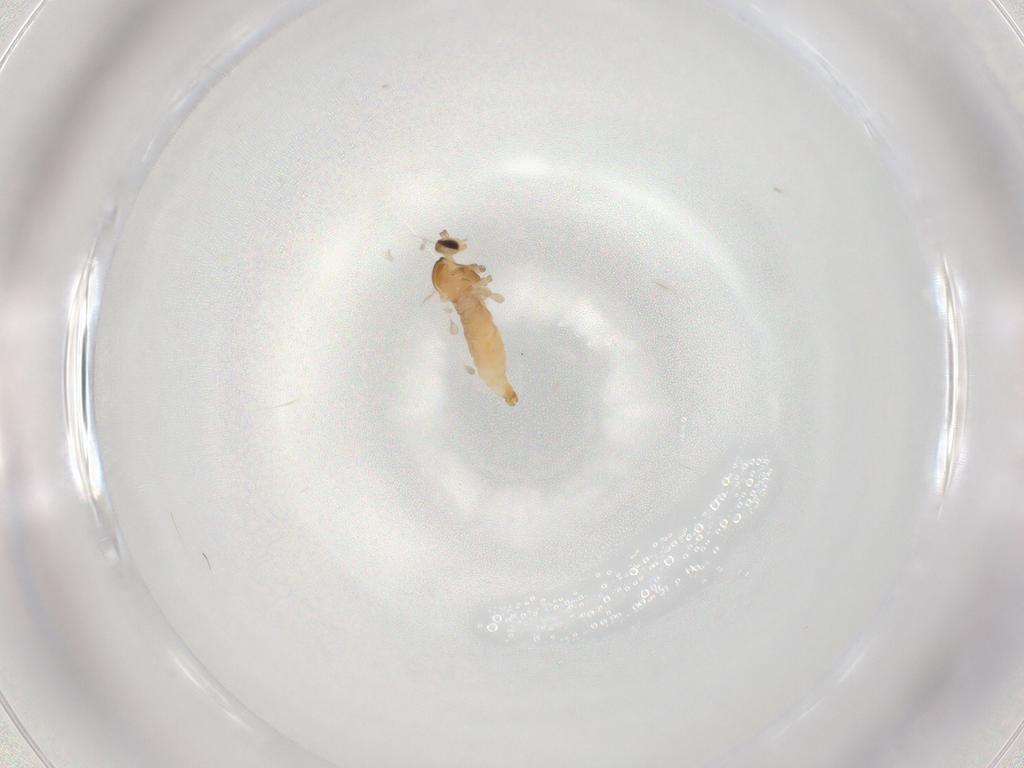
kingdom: Animalia
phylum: Arthropoda
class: Insecta
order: Diptera
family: Cecidomyiidae
